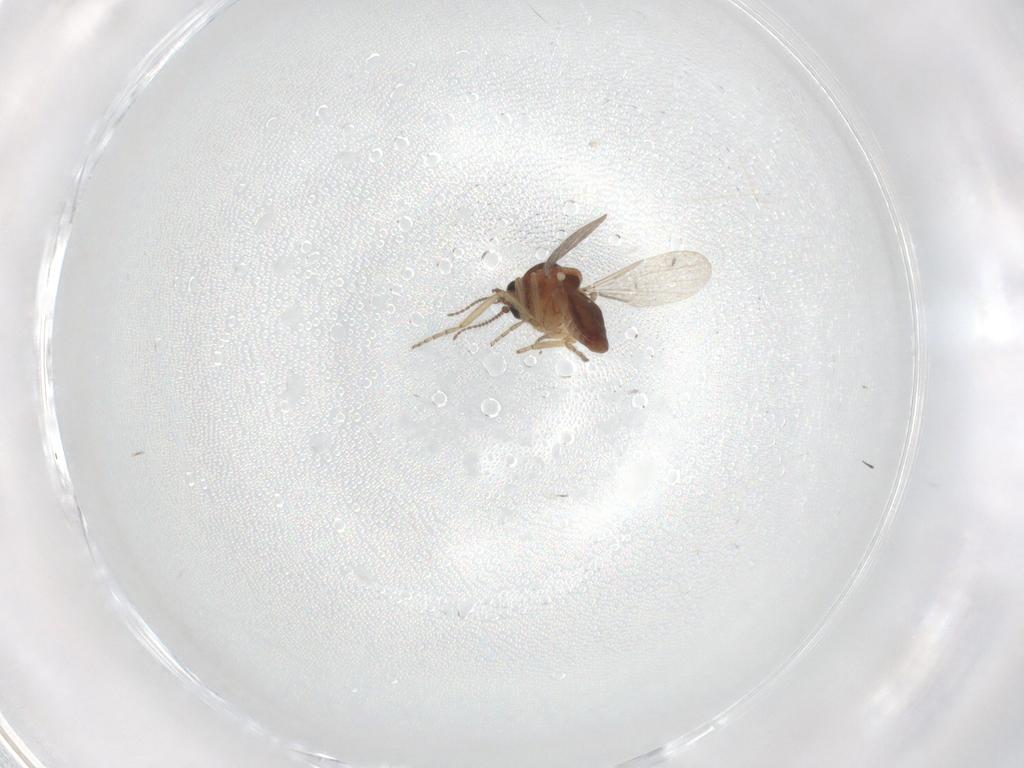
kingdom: Animalia
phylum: Arthropoda
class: Insecta
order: Diptera
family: Ceratopogonidae
